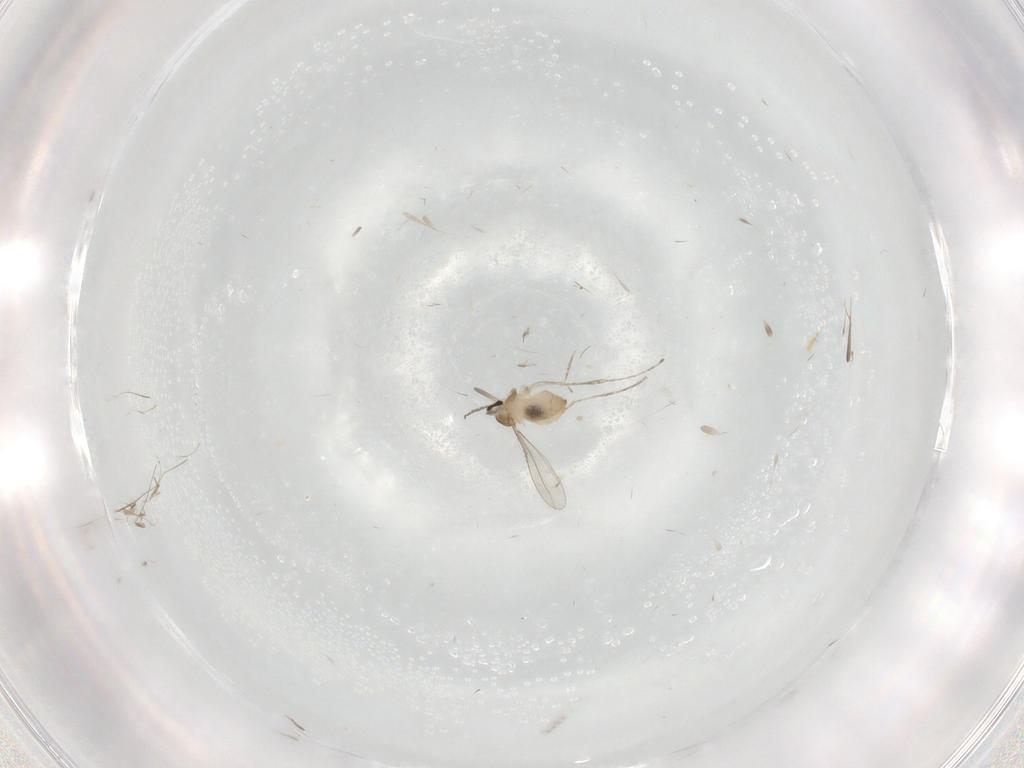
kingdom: Animalia
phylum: Arthropoda
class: Insecta
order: Diptera
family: Cecidomyiidae
